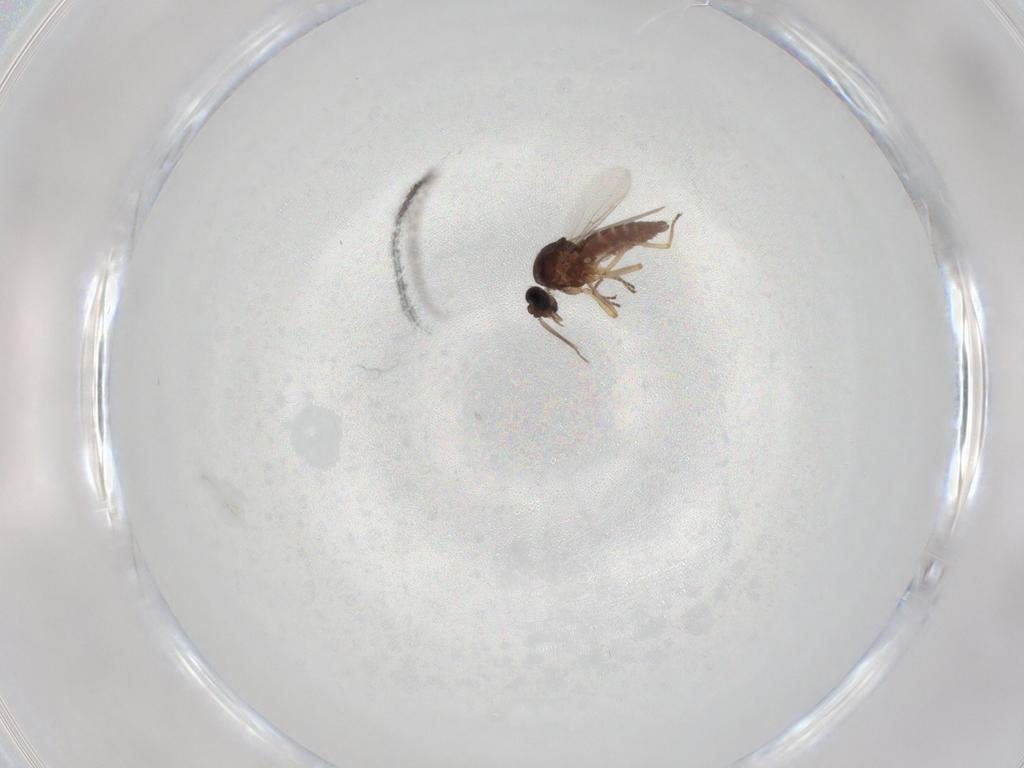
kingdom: Animalia
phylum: Arthropoda
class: Insecta
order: Diptera
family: Ceratopogonidae
